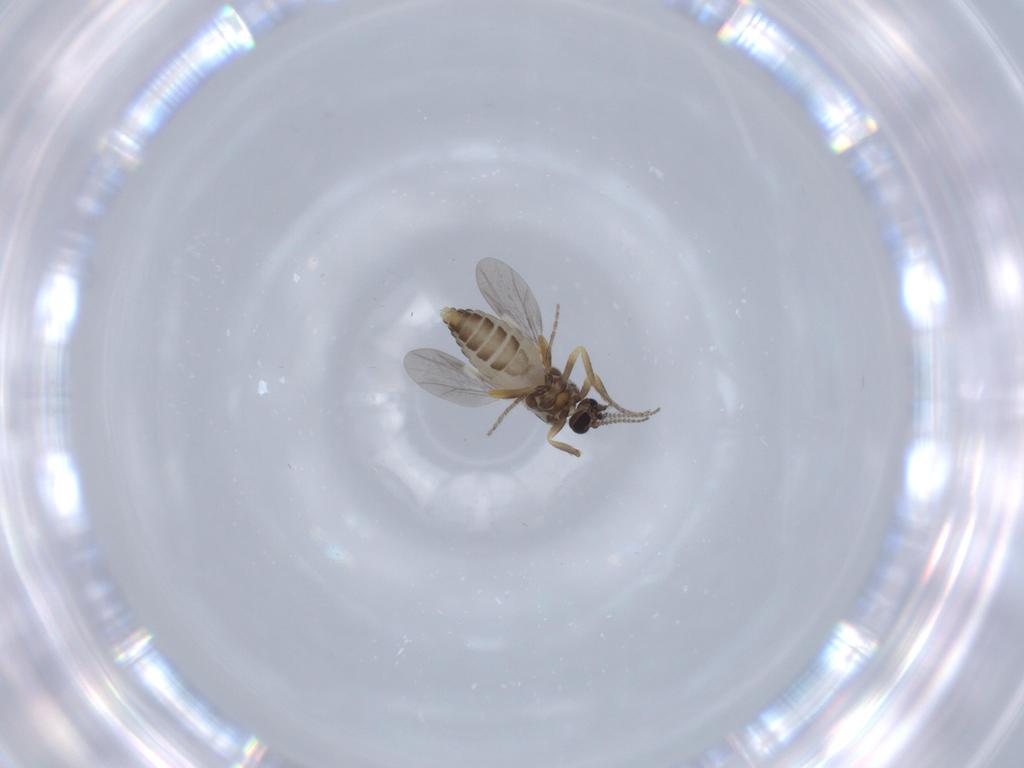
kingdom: Animalia
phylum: Arthropoda
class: Insecta
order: Diptera
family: Ceratopogonidae
